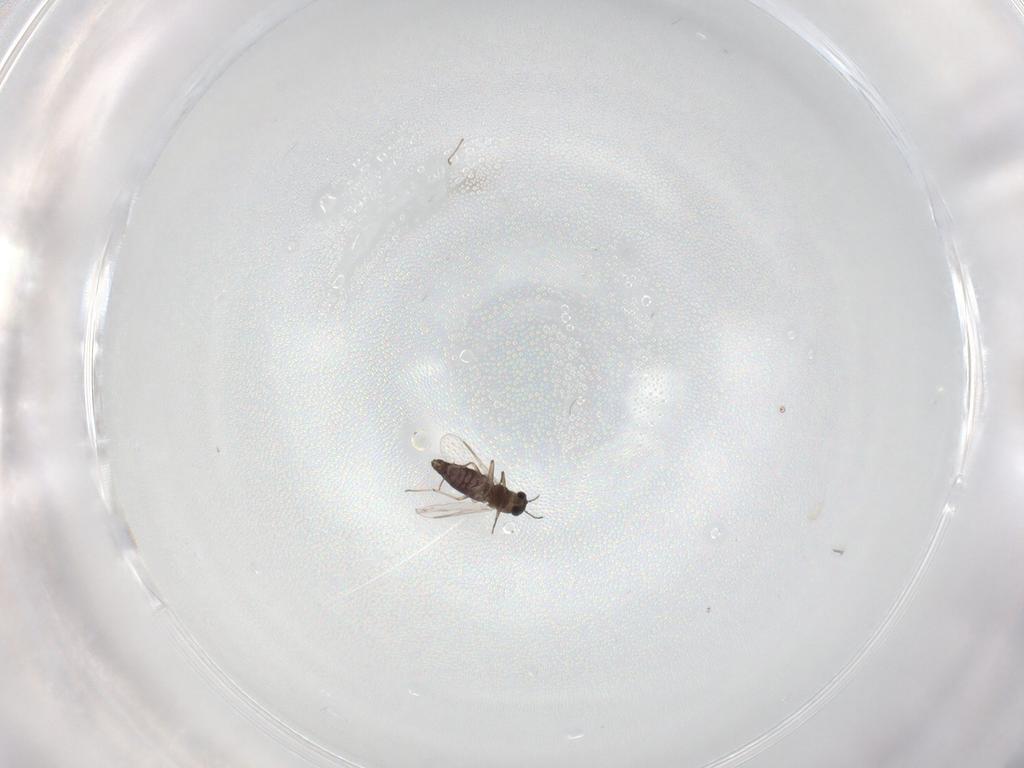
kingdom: Animalia
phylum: Arthropoda
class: Insecta
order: Diptera
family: Chironomidae
